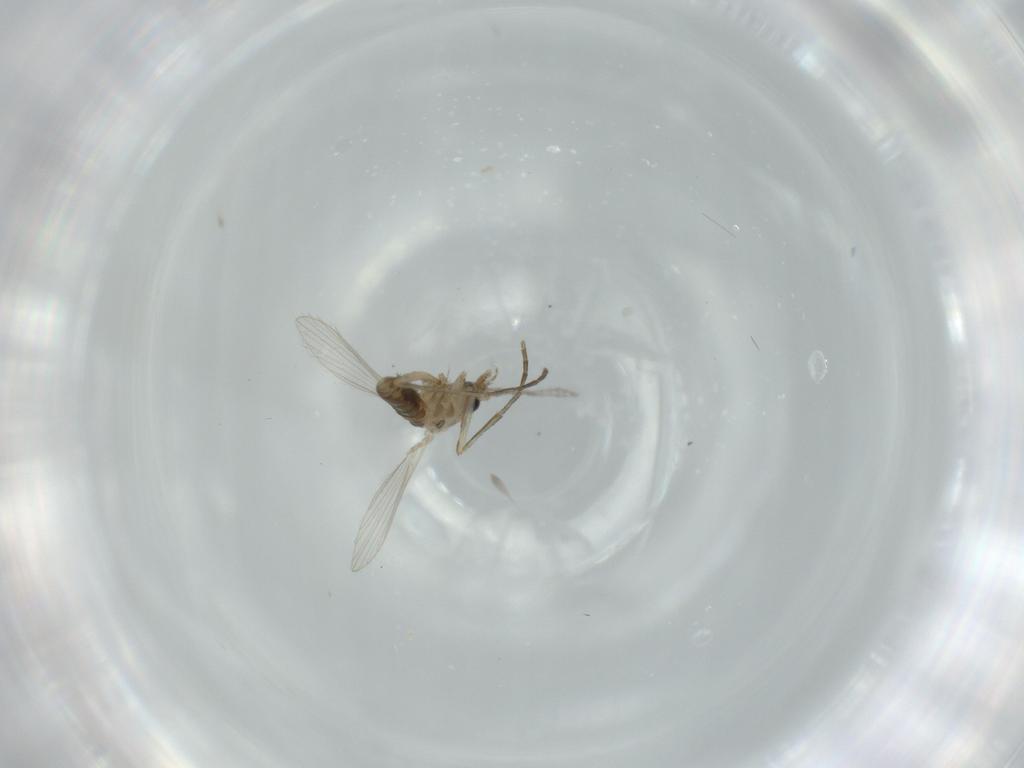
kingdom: Animalia
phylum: Arthropoda
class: Insecta
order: Diptera
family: Psychodidae
